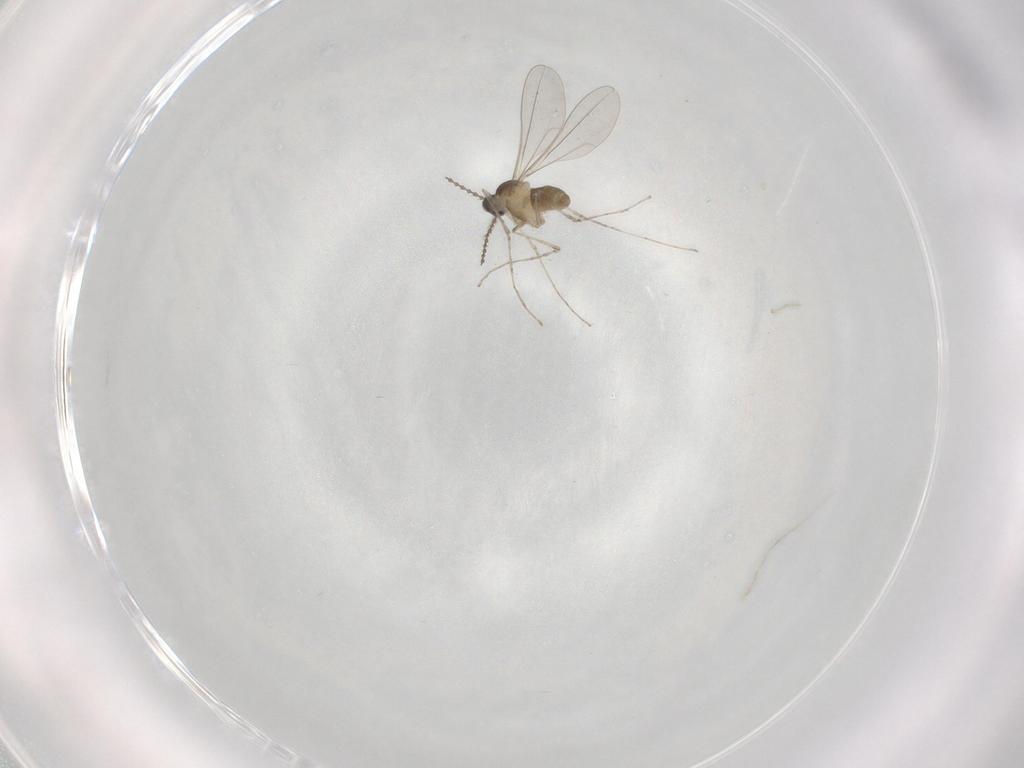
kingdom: Animalia
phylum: Arthropoda
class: Insecta
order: Diptera
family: Cecidomyiidae
